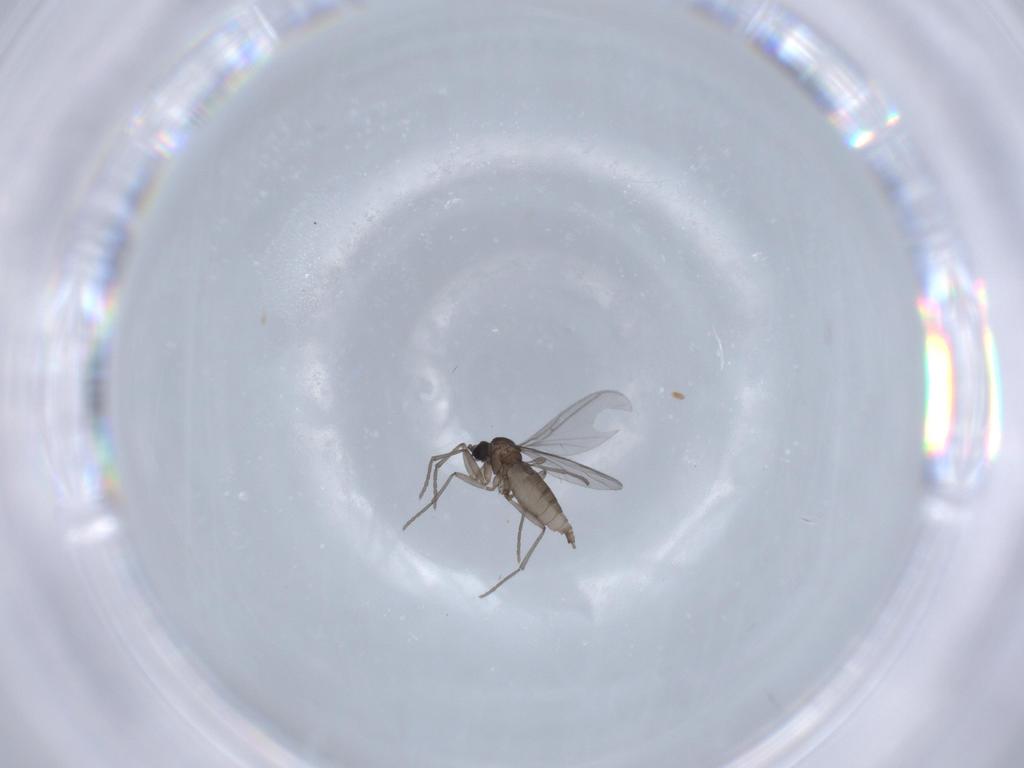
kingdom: Animalia
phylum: Arthropoda
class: Insecta
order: Diptera
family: Sciaridae
